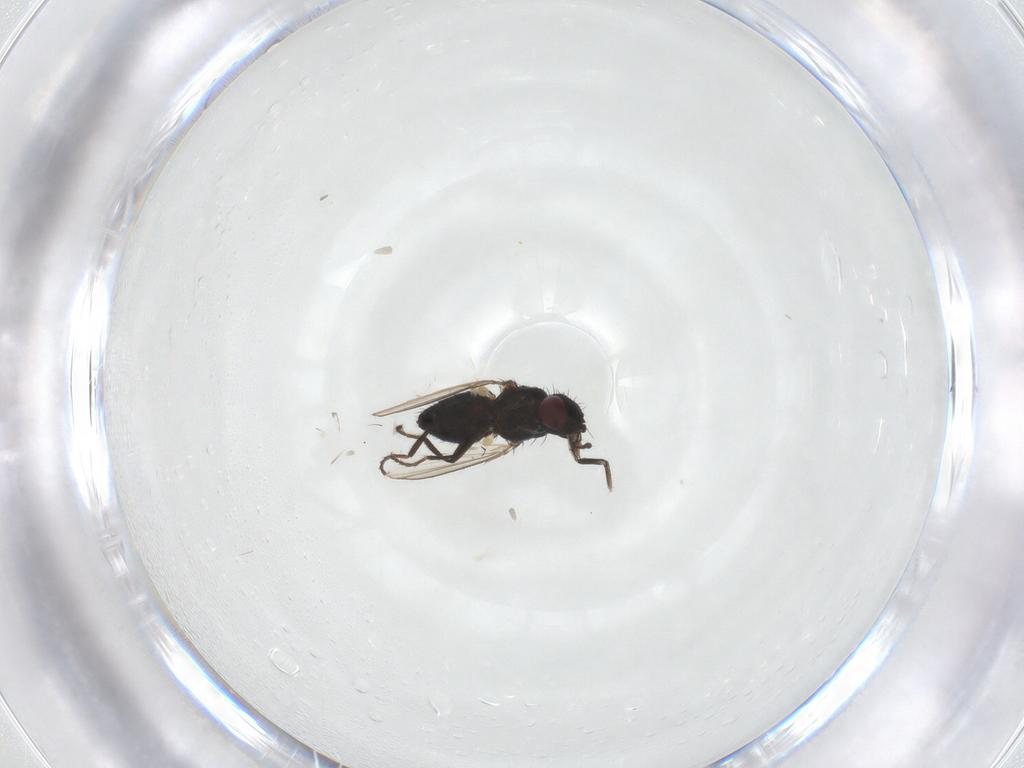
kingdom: Animalia
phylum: Arthropoda
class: Insecta
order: Diptera
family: Milichiidae
